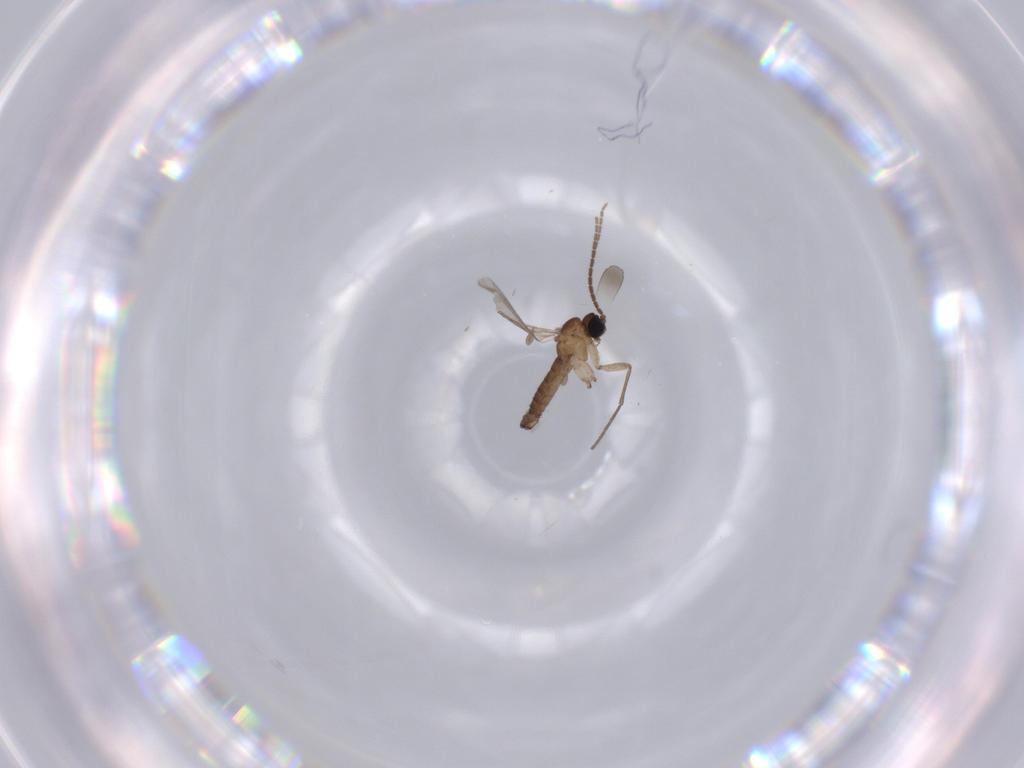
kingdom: Animalia
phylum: Arthropoda
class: Insecta
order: Diptera
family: Sciaridae
